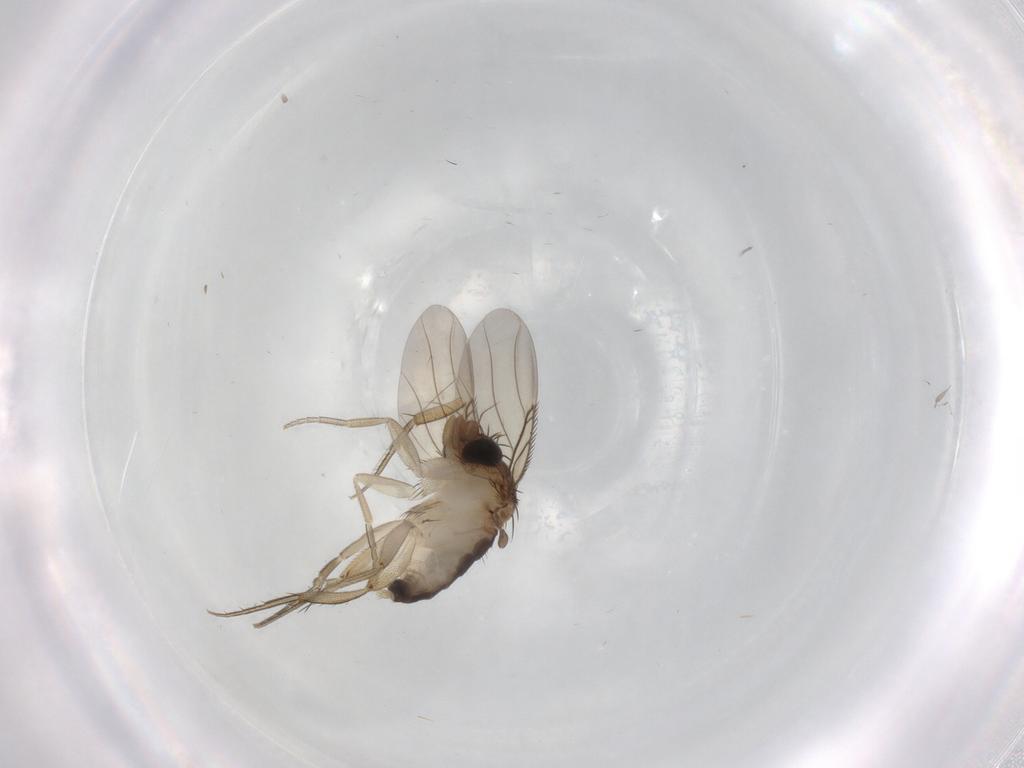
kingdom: Animalia
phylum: Arthropoda
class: Insecta
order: Diptera
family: Phoridae
